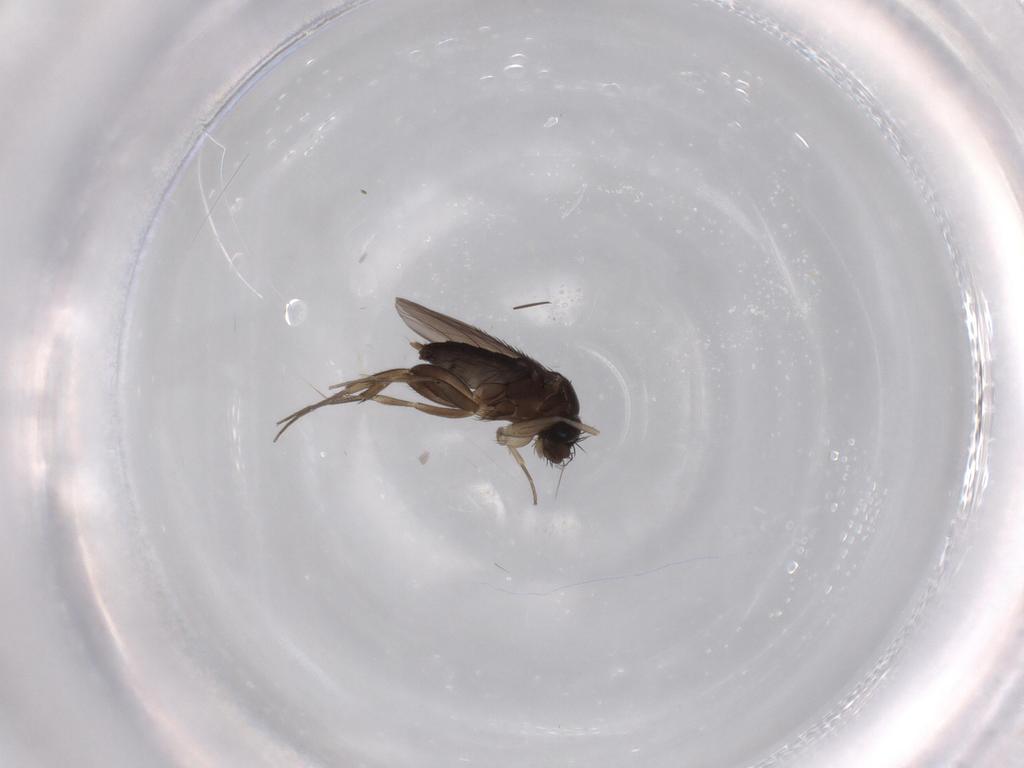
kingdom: Animalia
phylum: Arthropoda
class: Insecta
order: Diptera
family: Phoridae
